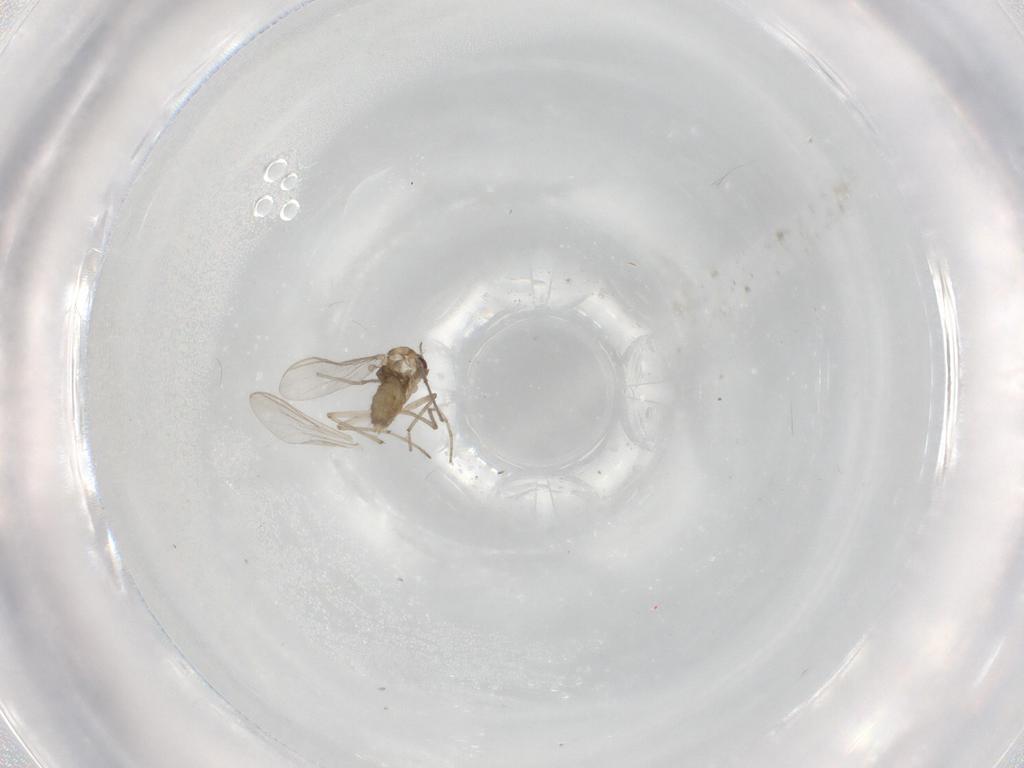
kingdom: Animalia
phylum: Arthropoda
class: Insecta
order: Diptera
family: Chironomidae
